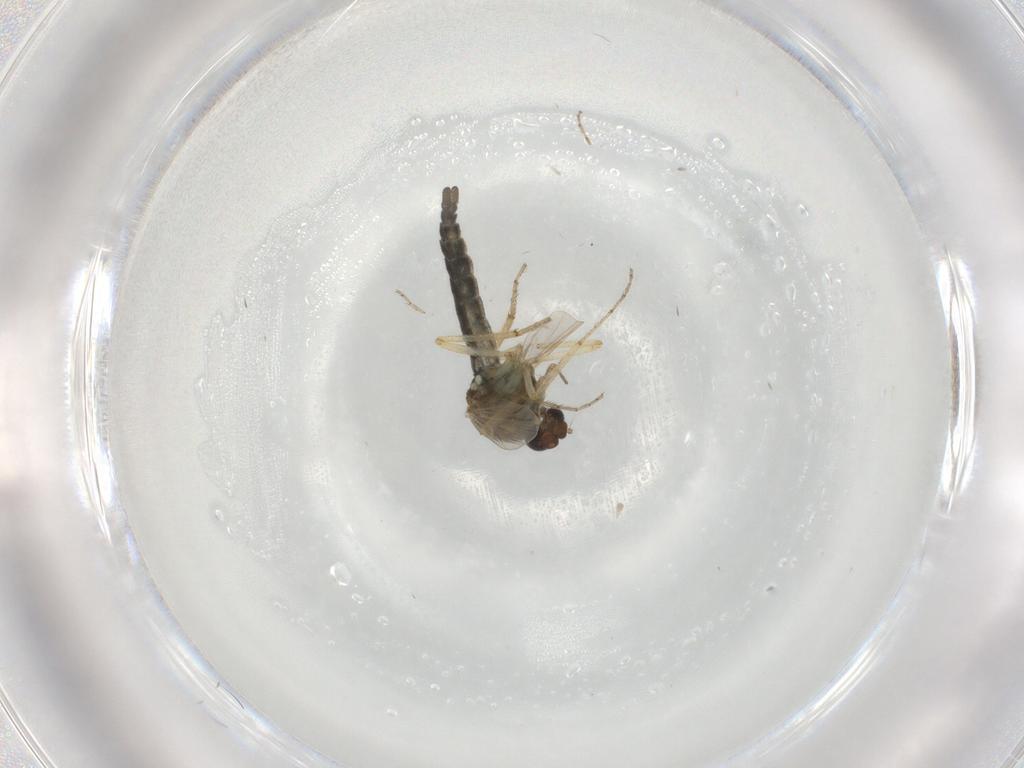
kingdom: Animalia
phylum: Arthropoda
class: Insecta
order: Diptera
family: Ceratopogonidae
